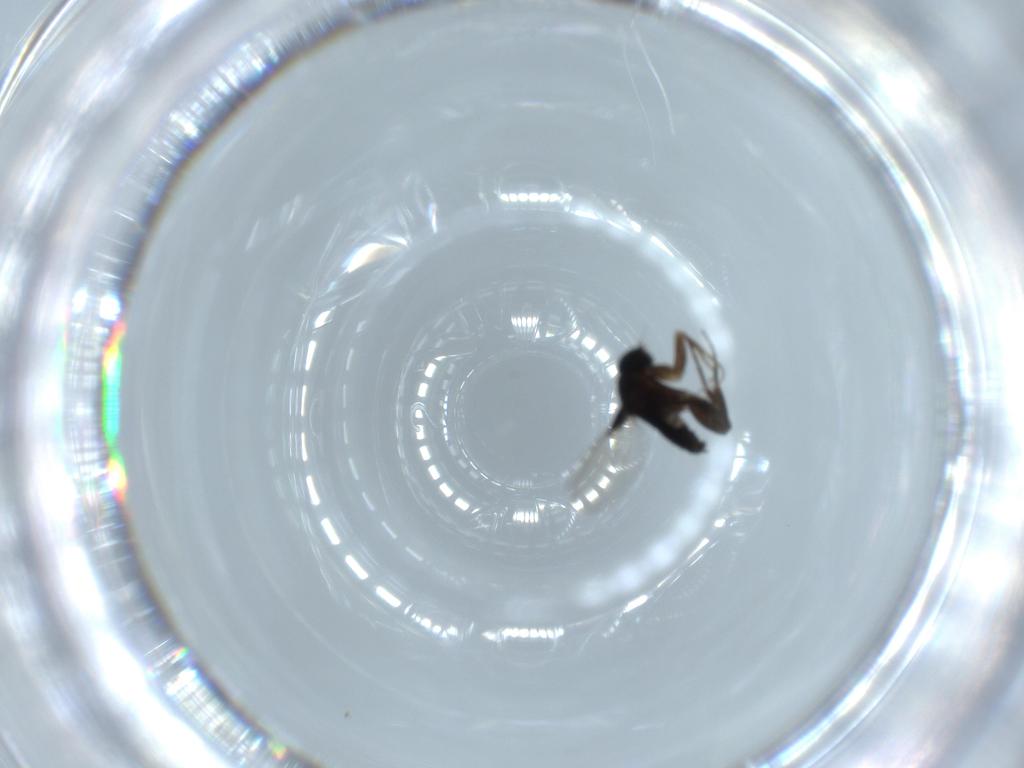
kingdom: Animalia
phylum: Arthropoda
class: Insecta
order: Diptera
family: Phoridae
